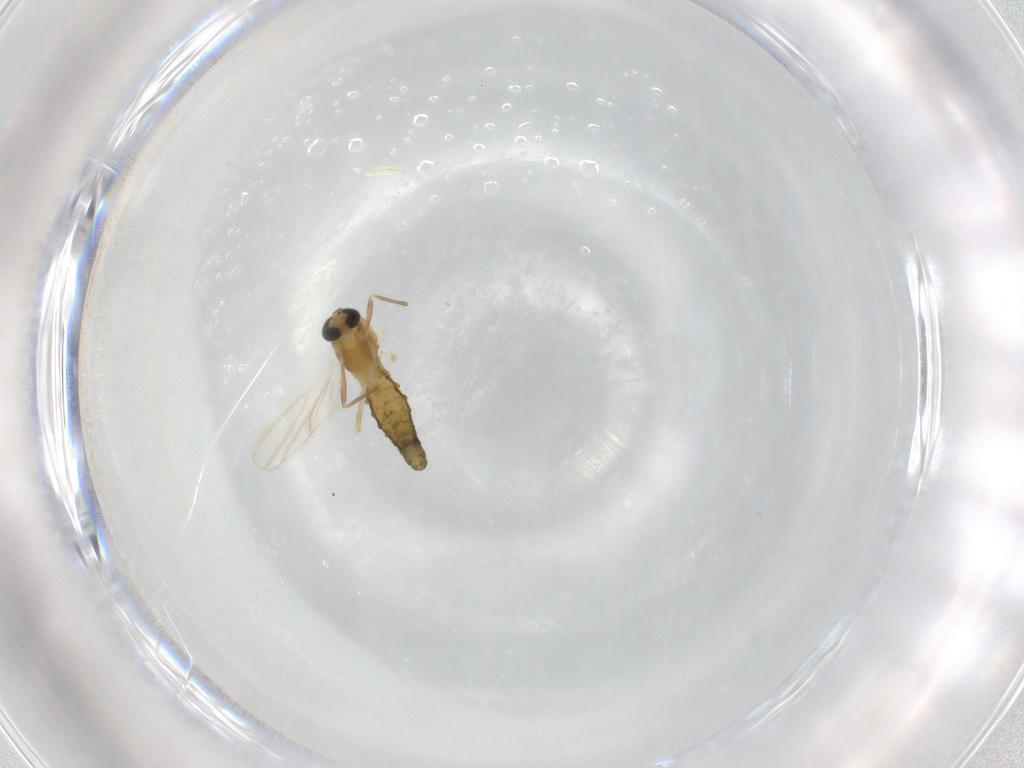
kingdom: Animalia
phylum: Arthropoda
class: Insecta
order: Diptera
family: Chironomidae
